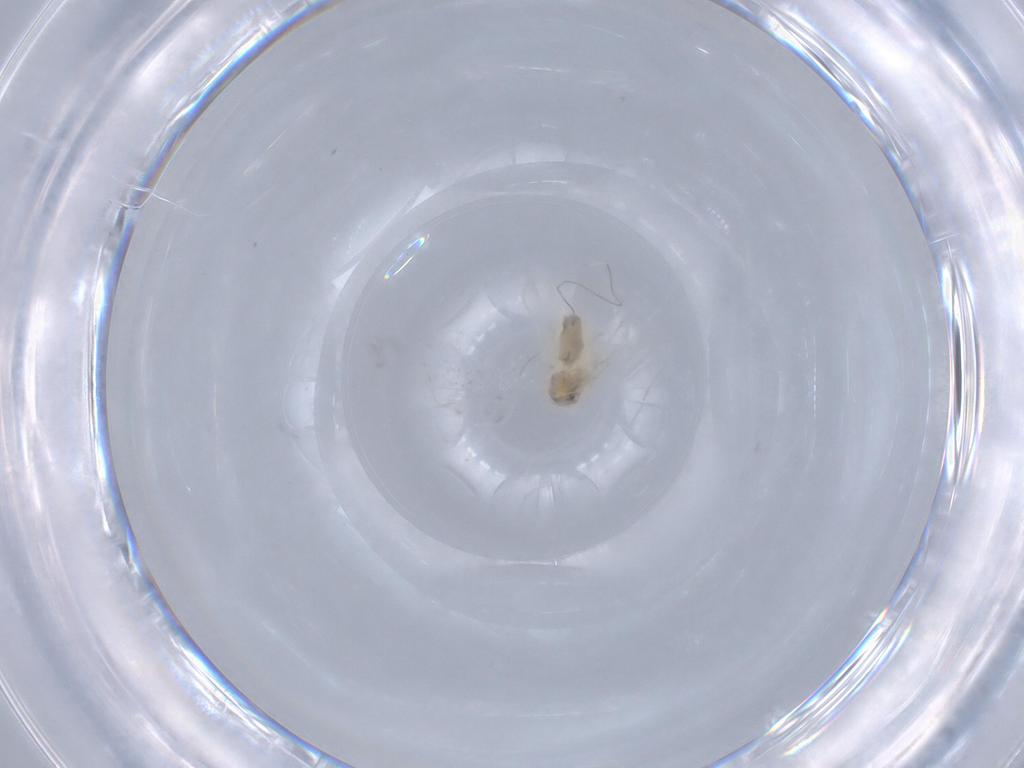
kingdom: Animalia
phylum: Arthropoda
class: Insecta
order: Hemiptera
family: Aleyrodidae
